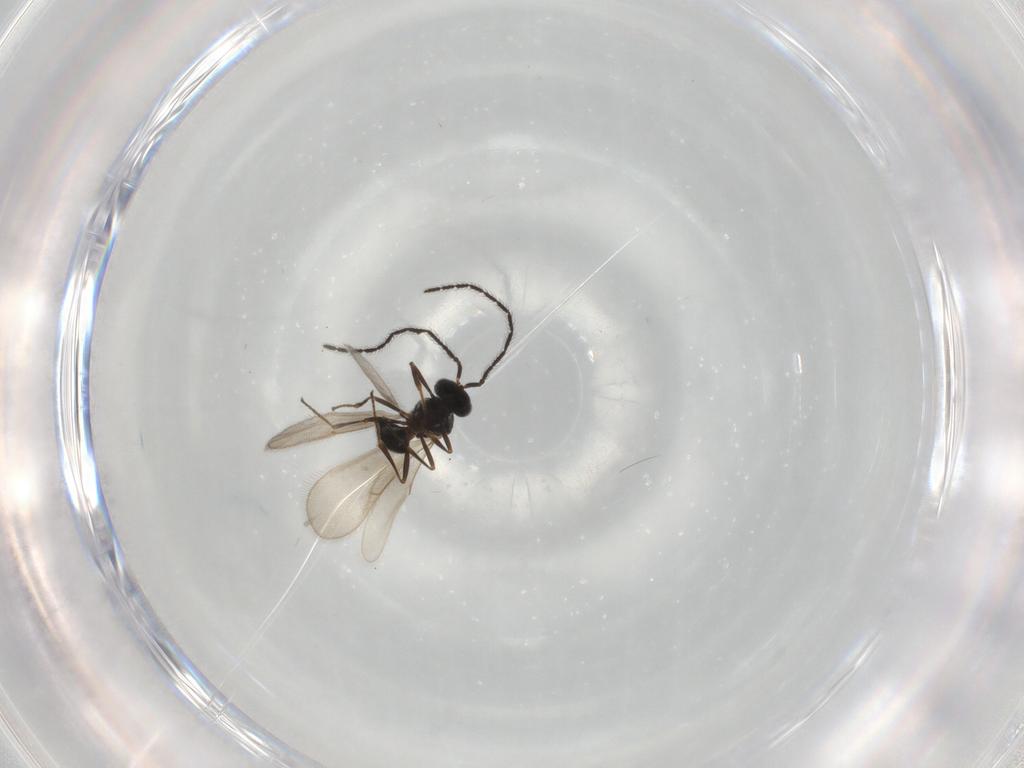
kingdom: Animalia
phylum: Arthropoda
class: Insecta
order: Hymenoptera
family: Scelionidae
